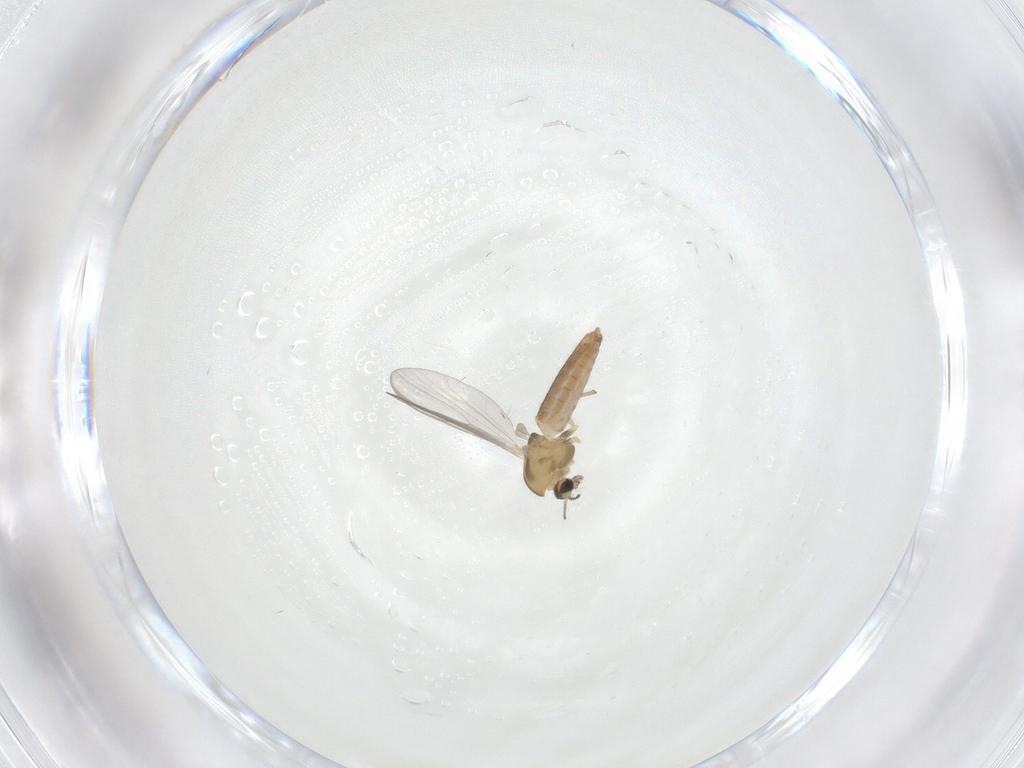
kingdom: Animalia
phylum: Arthropoda
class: Insecta
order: Diptera
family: Chironomidae
